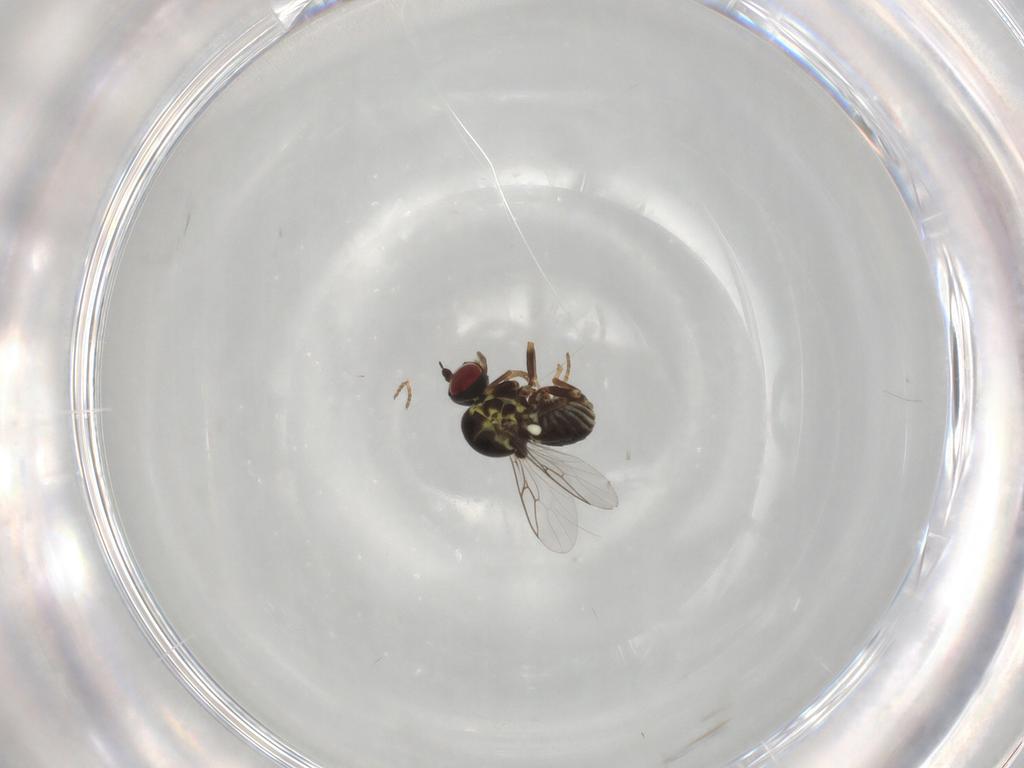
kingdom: Animalia
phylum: Arthropoda
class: Insecta
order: Diptera
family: Mythicomyiidae
